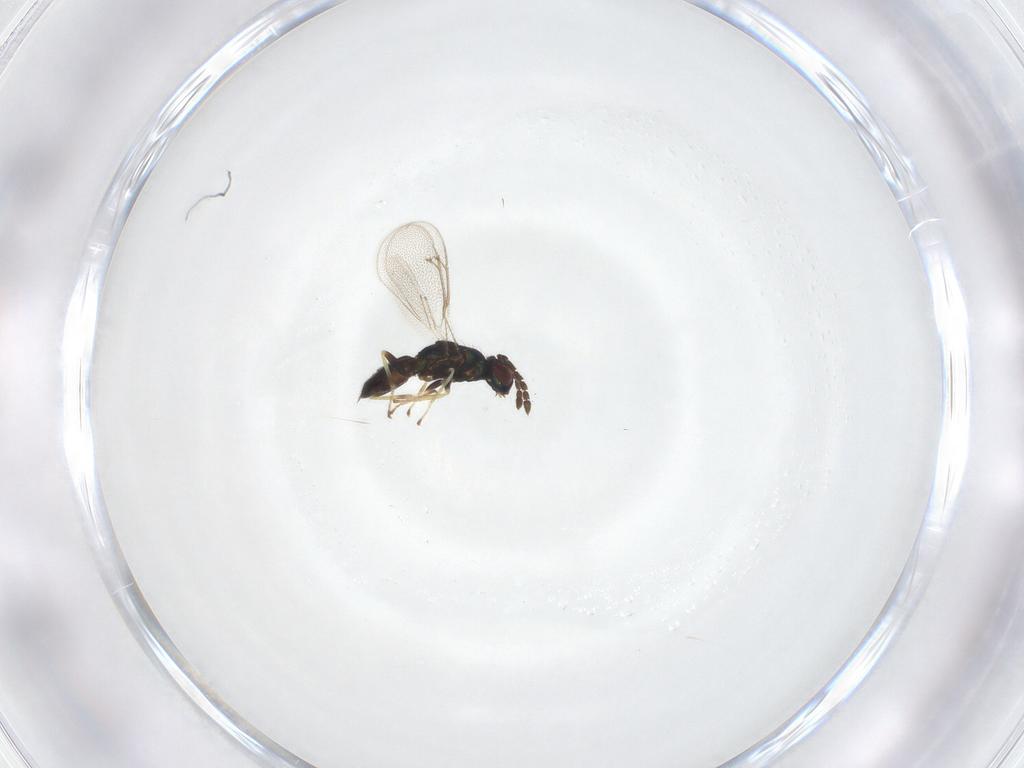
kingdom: Animalia
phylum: Arthropoda
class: Insecta
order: Hymenoptera
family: Eulophidae
